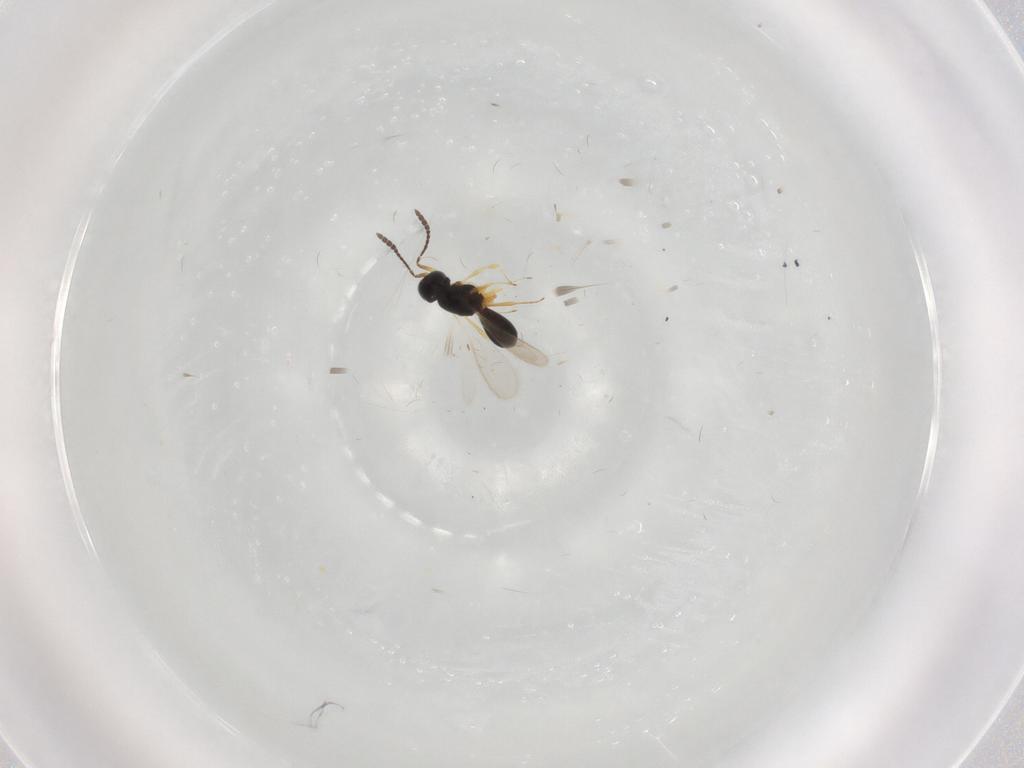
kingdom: Animalia
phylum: Arthropoda
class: Insecta
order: Hymenoptera
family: Scelionidae
